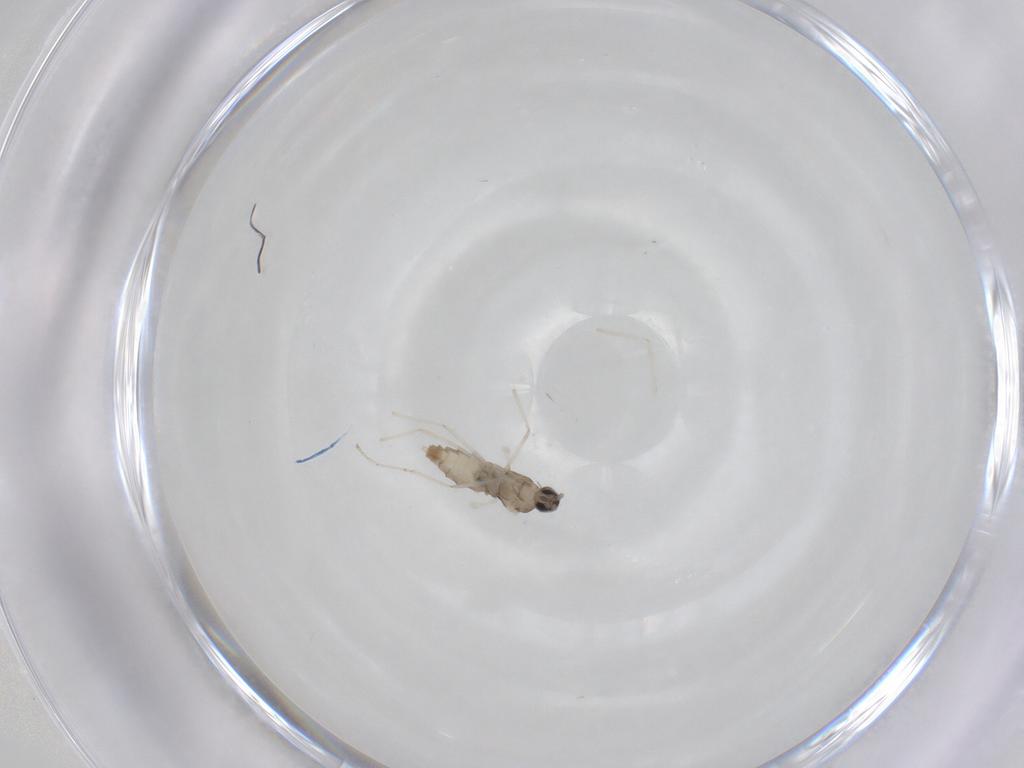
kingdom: Animalia
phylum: Arthropoda
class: Insecta
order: Diptera
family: Cecidomyiidae
